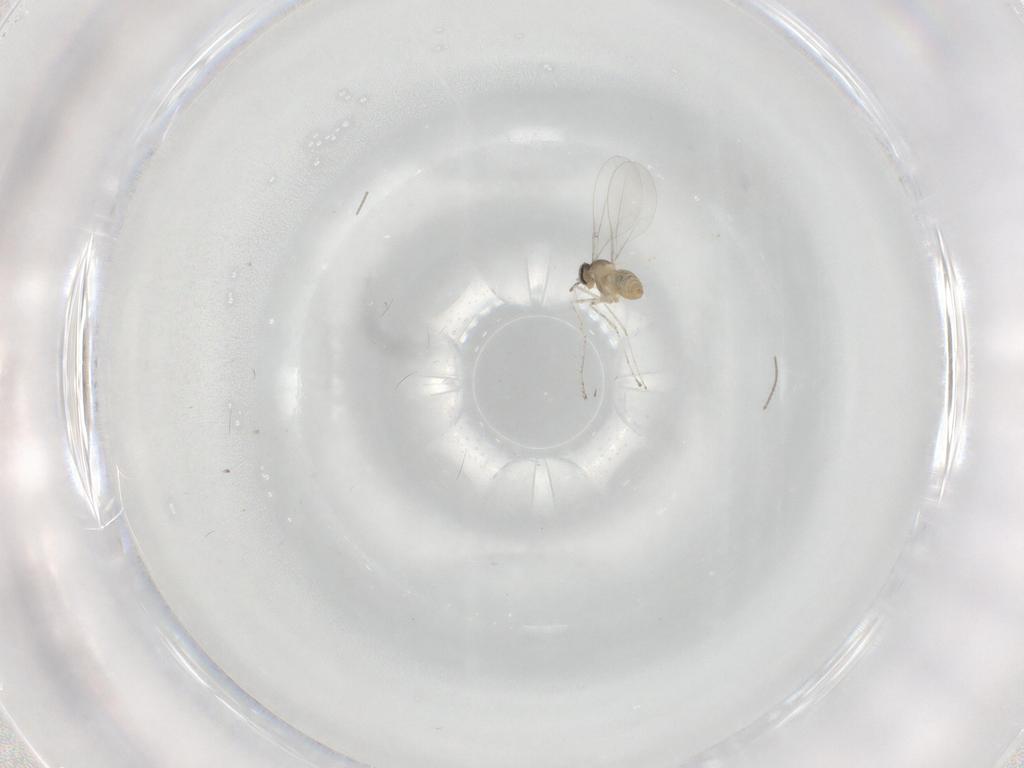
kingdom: Animalia
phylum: Arthropoda
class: Insecta
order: Diptera
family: Cecidomyiidae
